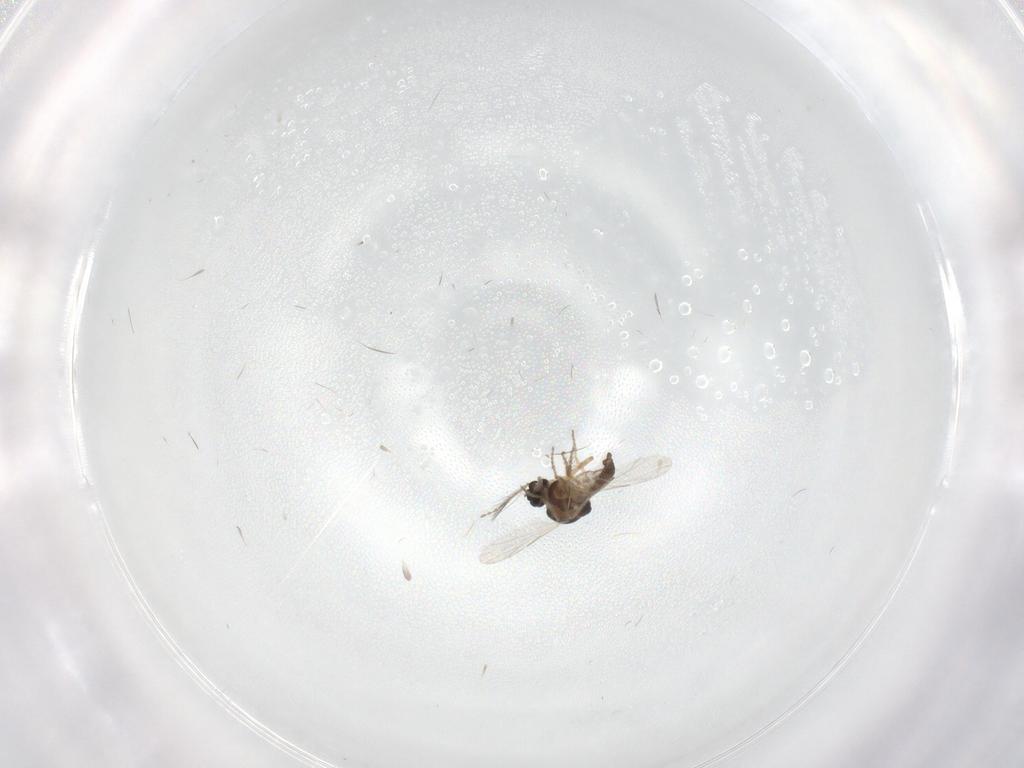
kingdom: Animalia
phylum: Arthropoda
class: Insecta
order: Diptera
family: Ceratopogonidae
